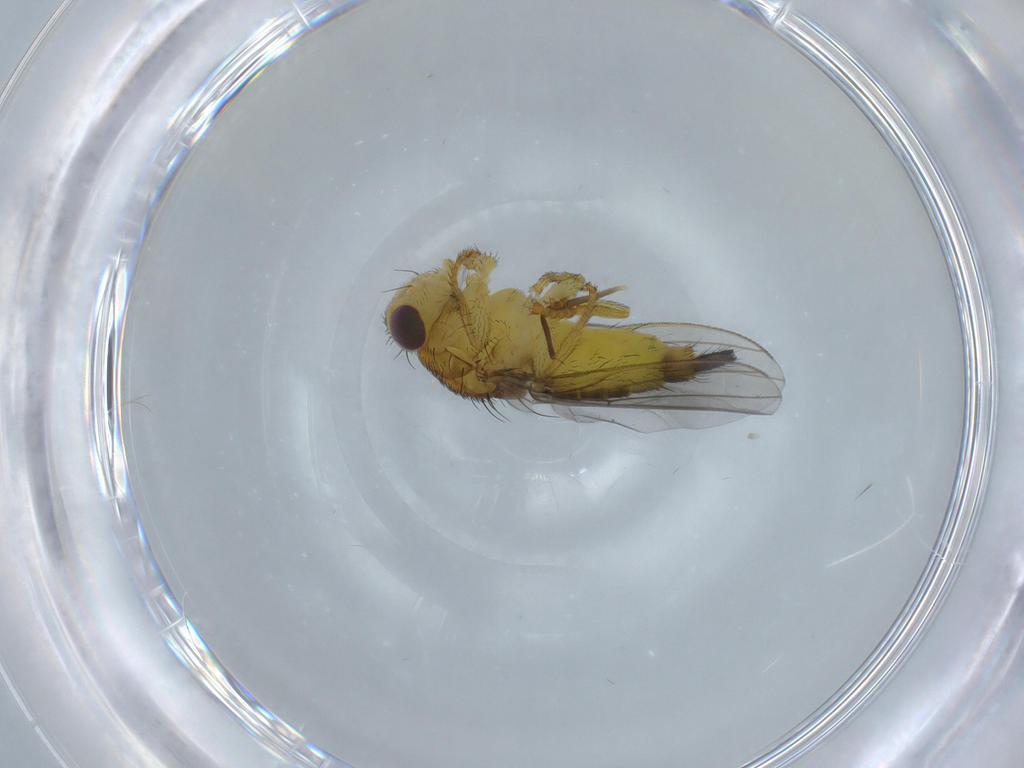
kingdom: Animalia
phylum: Arthropoda
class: Insecta
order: Diptera
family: Fergusoninidae
